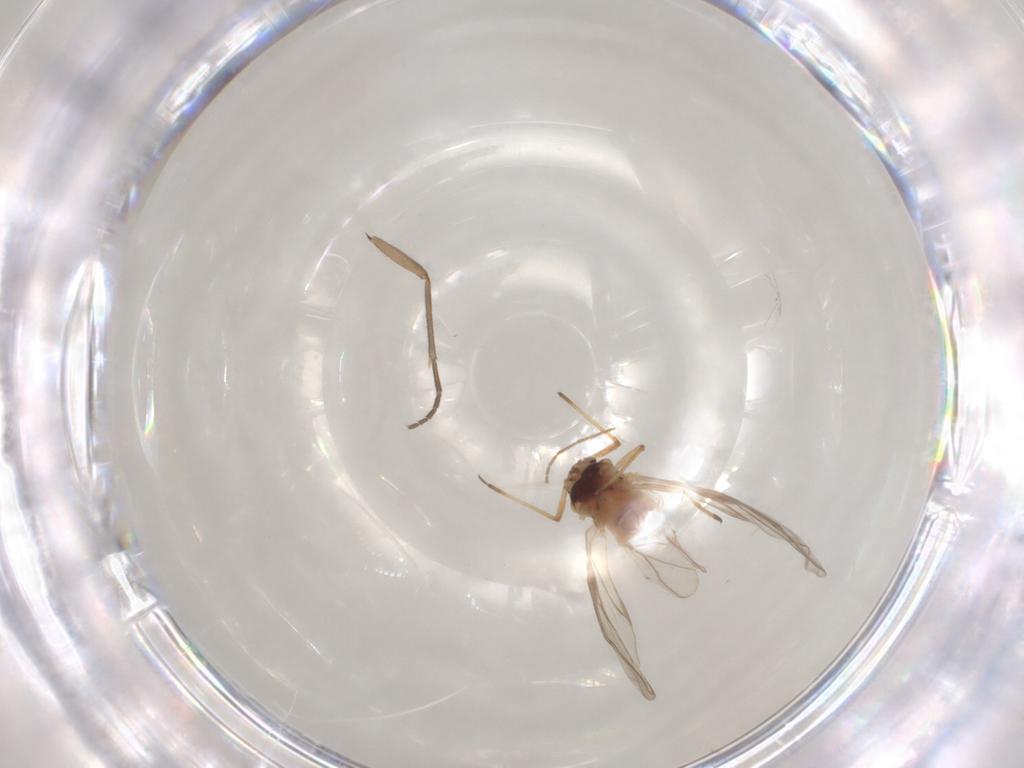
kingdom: Animalia
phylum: Arthropoda
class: Insecta
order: Hemiptera
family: Aphididae
